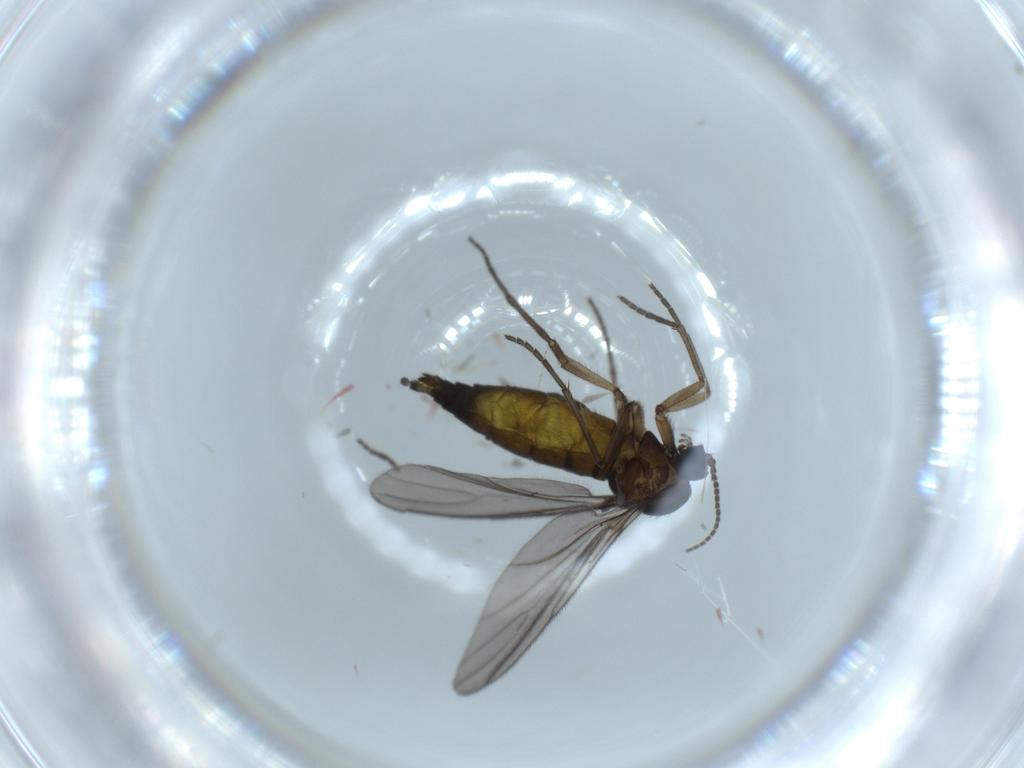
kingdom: Animalia
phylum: Arthropoda
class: Insecta
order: Diptera
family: Sciaridae
